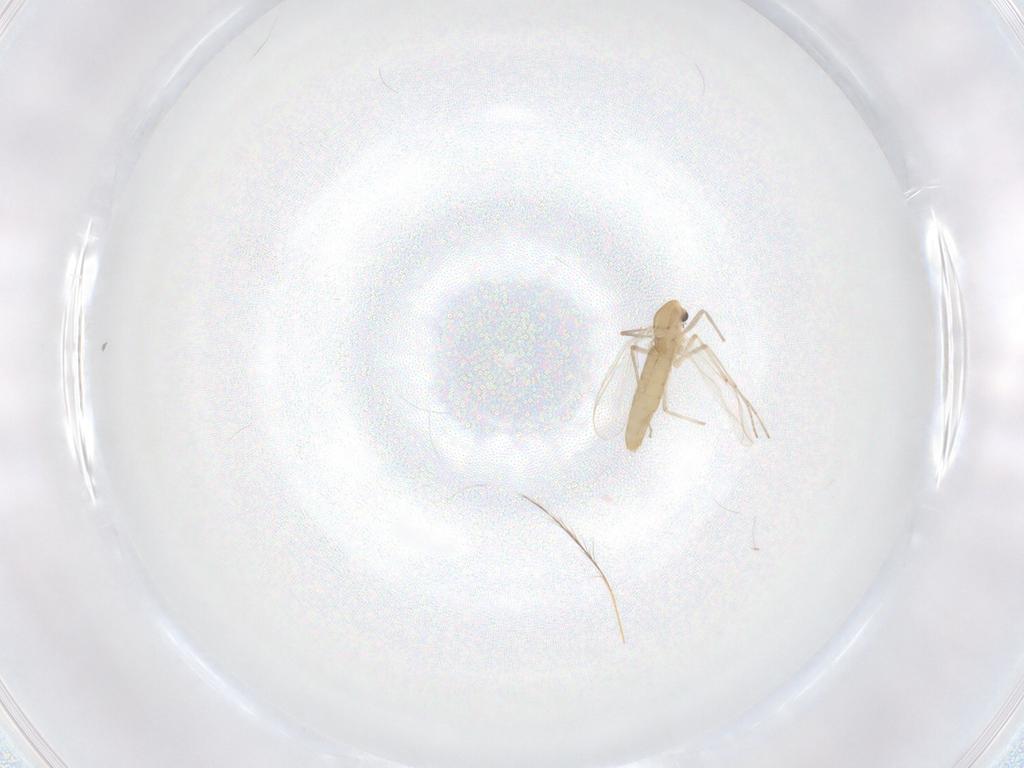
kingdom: Animalia
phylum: Arthropoda
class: Insecta
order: Diptera
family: Chironomidae
